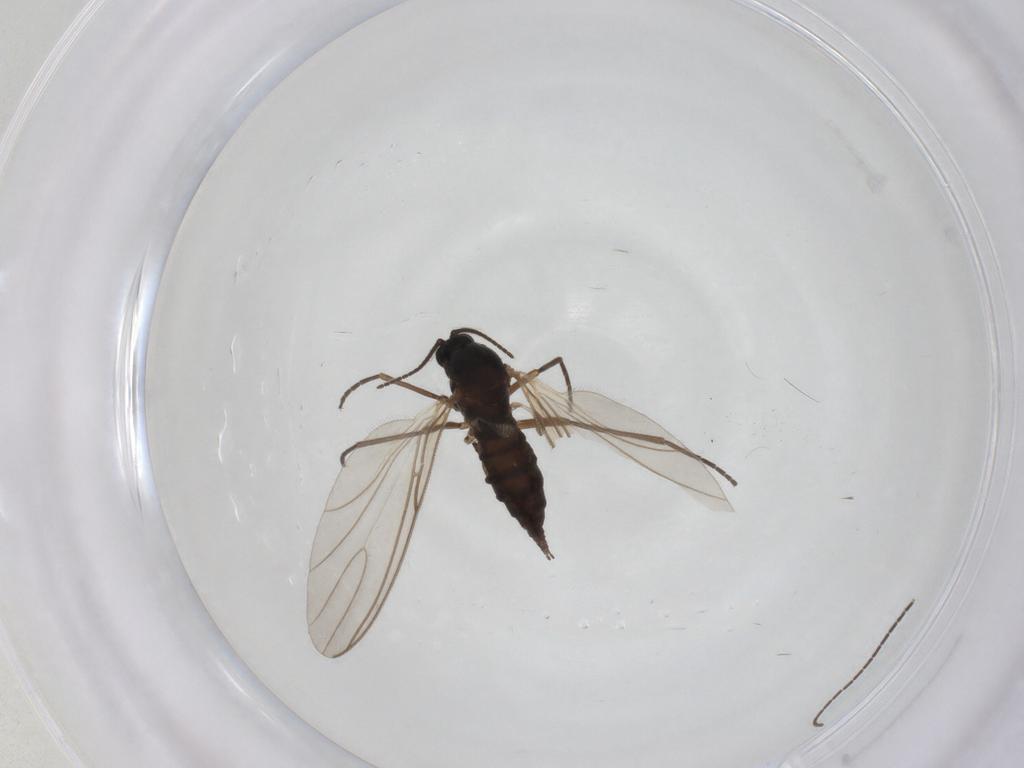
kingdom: Animalia
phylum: Arthropoda
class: Insecta
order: Diptera
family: Sciaridae
